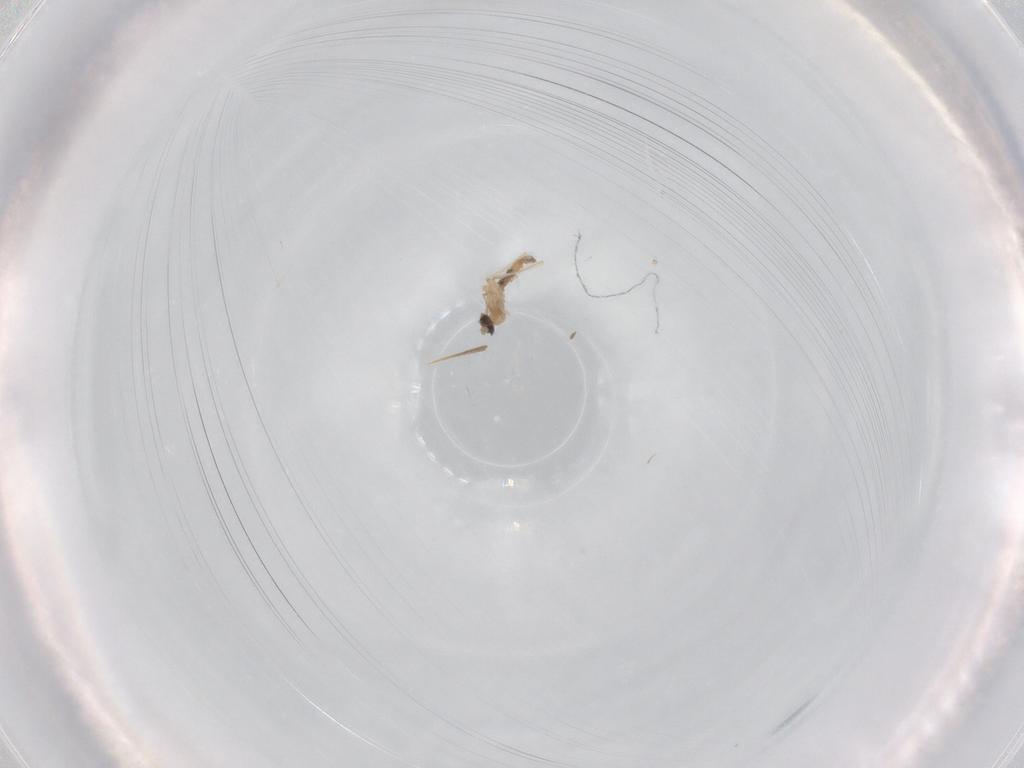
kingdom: Animalia
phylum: Arthropoda
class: Insecta
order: Diptera
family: Cecidomyiidae
